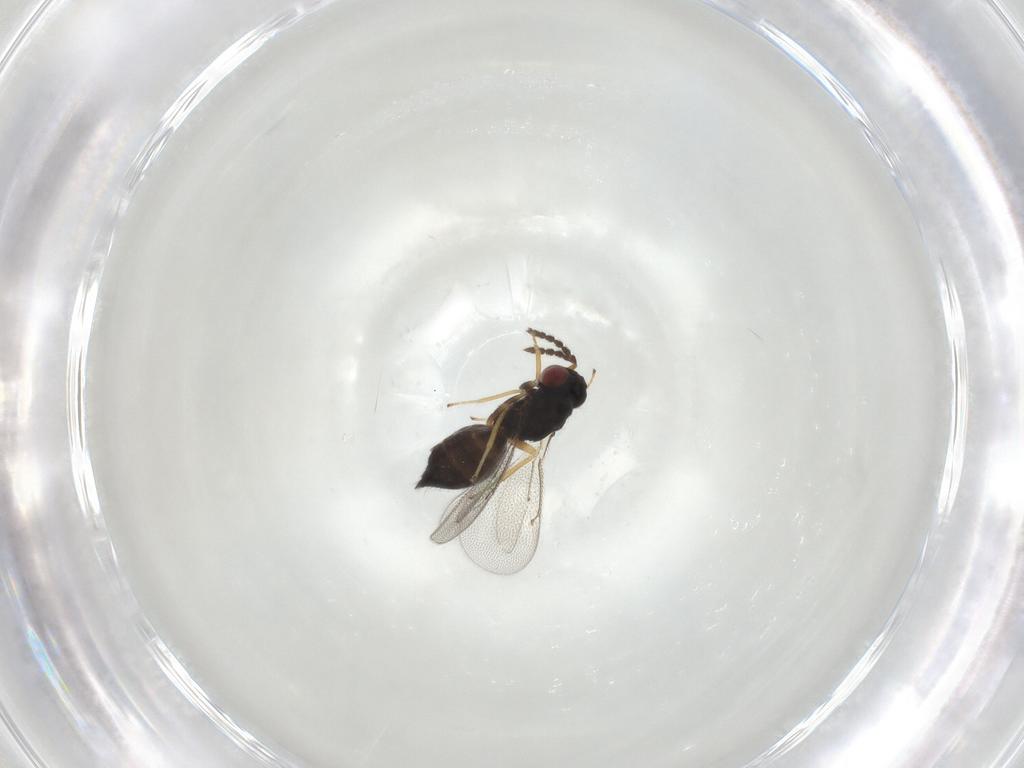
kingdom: Animalia
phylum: Arthropoda
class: Insecta
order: Hymenoptera
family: Eulophidae
